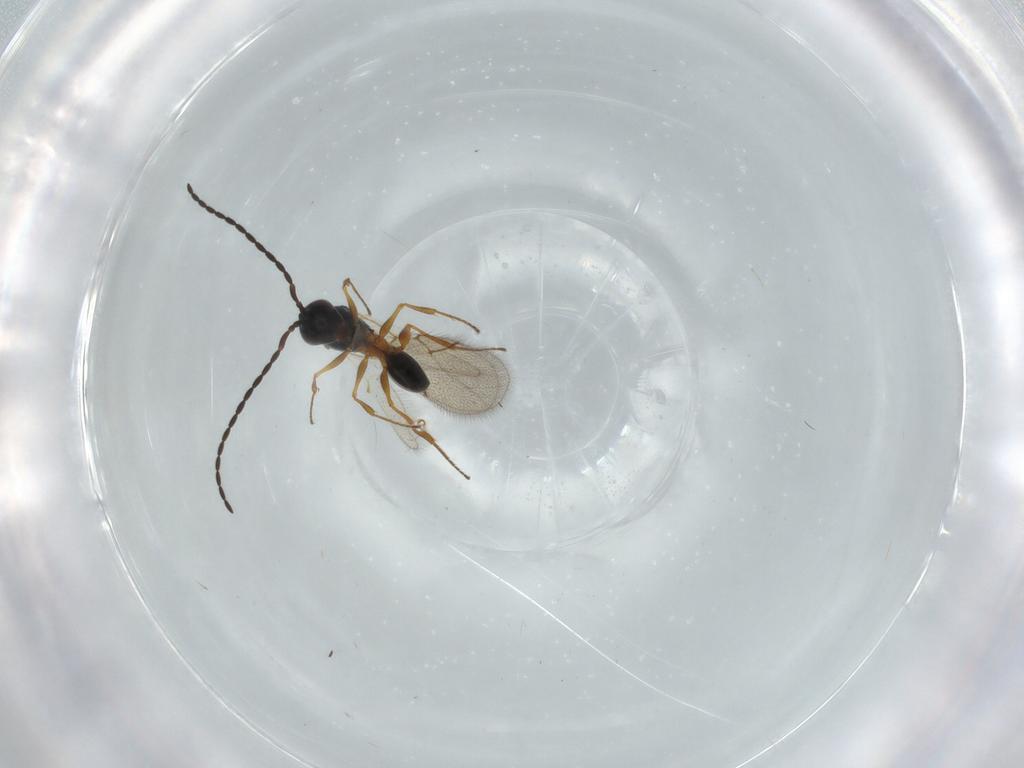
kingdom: Animalia
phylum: Arthropoda
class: Insecta
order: Hymenoptera
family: Figitidae
